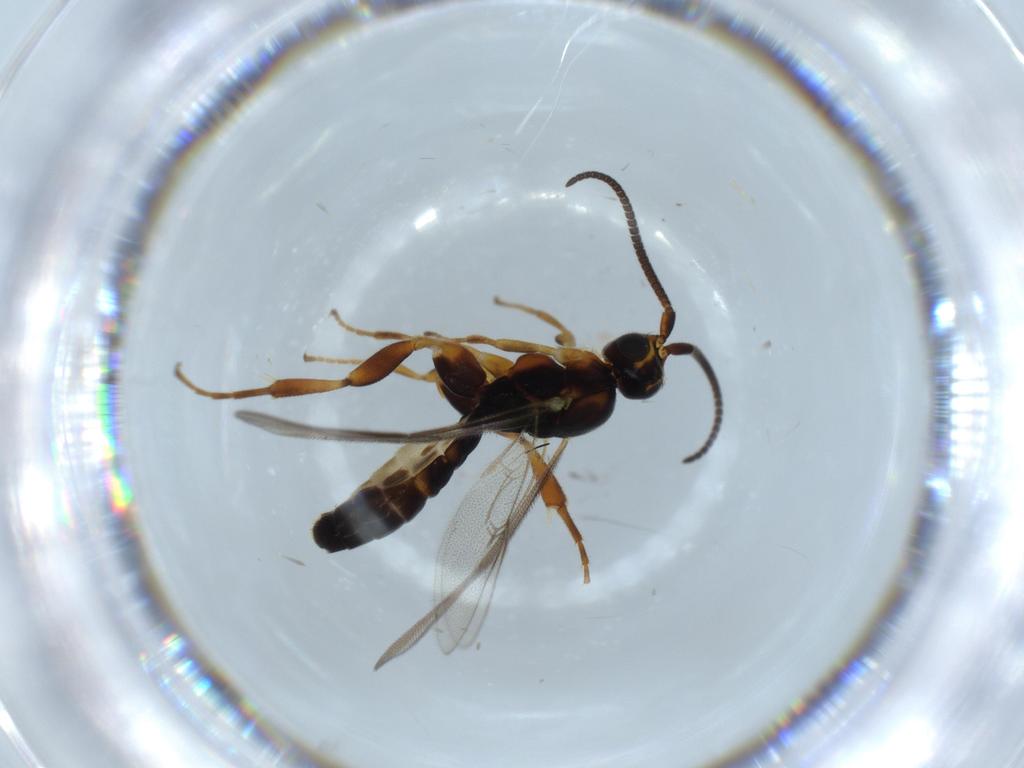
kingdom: Animalia
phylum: Arthropoda
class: Insecta
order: Hymenoptera
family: Ichneumonidae
